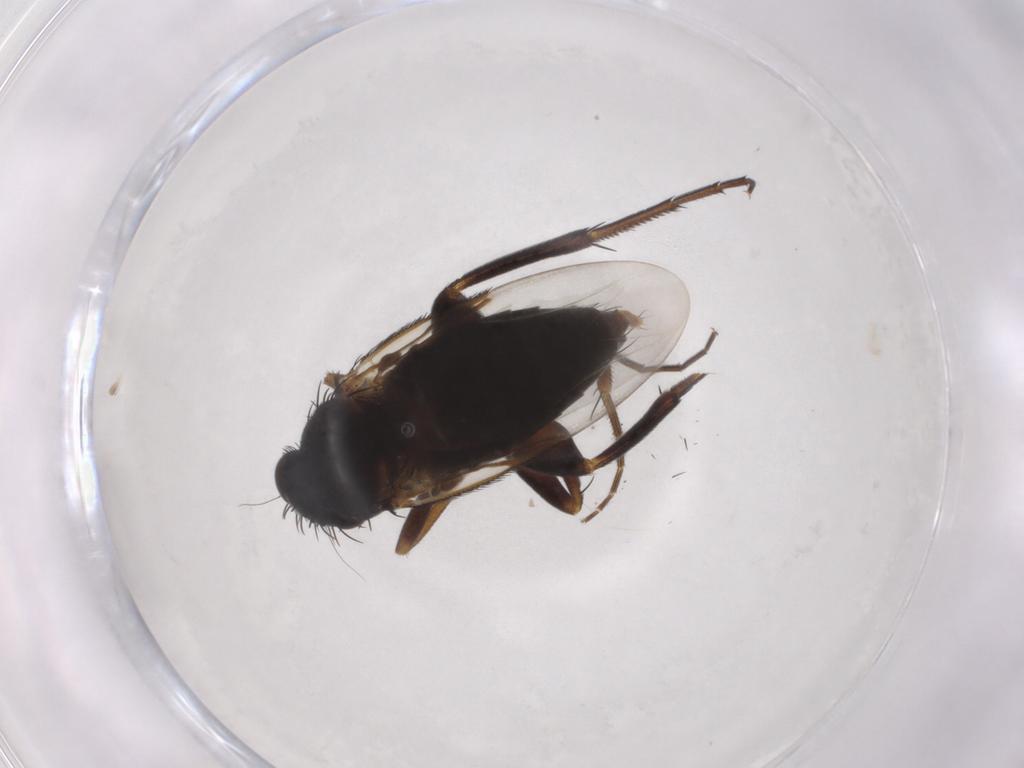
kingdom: Animalia
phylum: Arthropoda
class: Insecta
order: Diptera
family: Phoridae
